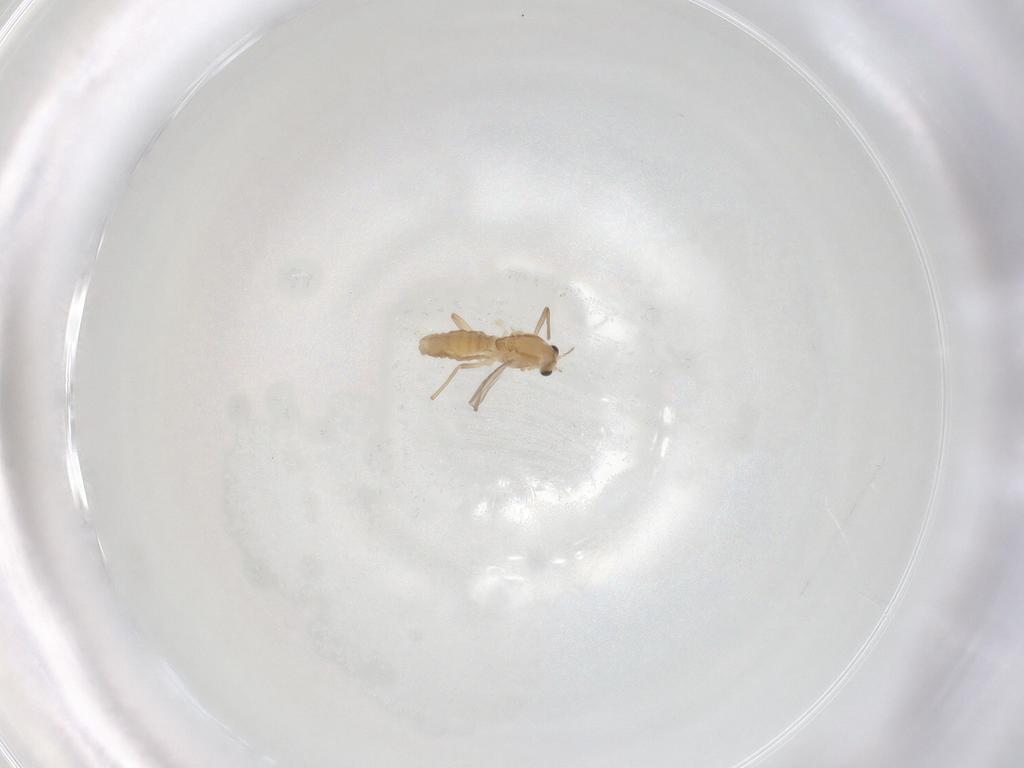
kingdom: Animalia
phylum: Arthropoda
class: Insecta
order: Diptera
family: Chironomidae
